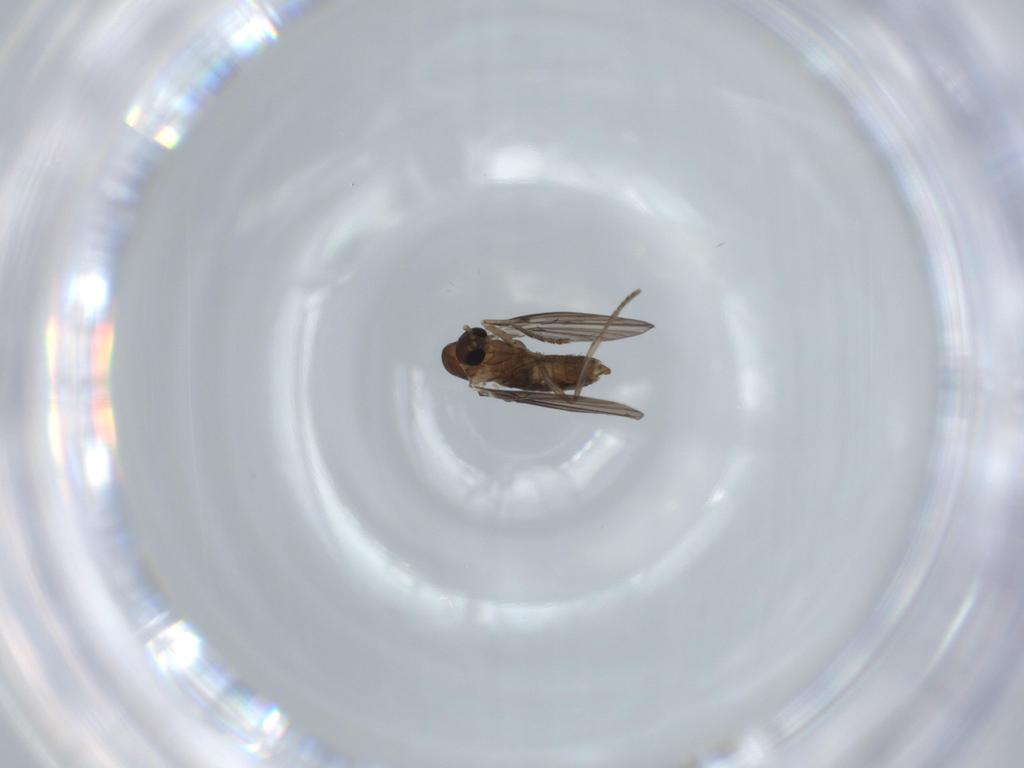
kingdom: Animalia
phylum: Arthropoda
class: Insecta
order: Diptera
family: Psychodidae
